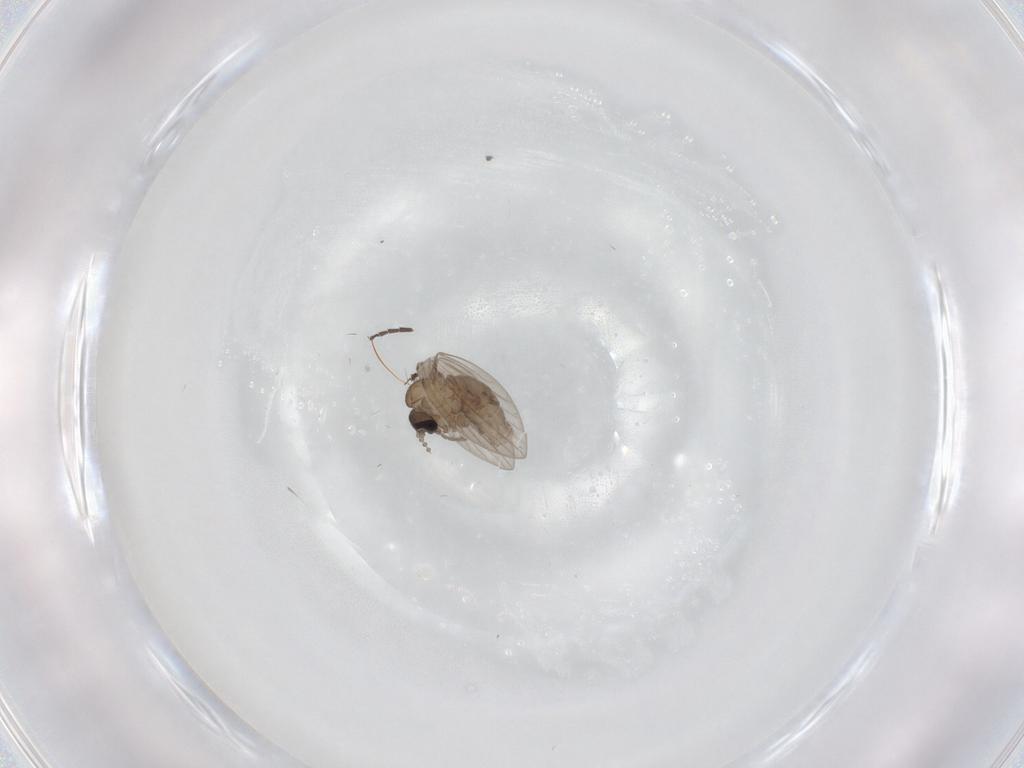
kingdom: Animalia
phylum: Arthropoda
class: Insecta
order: Diptera
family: Psychodidae
